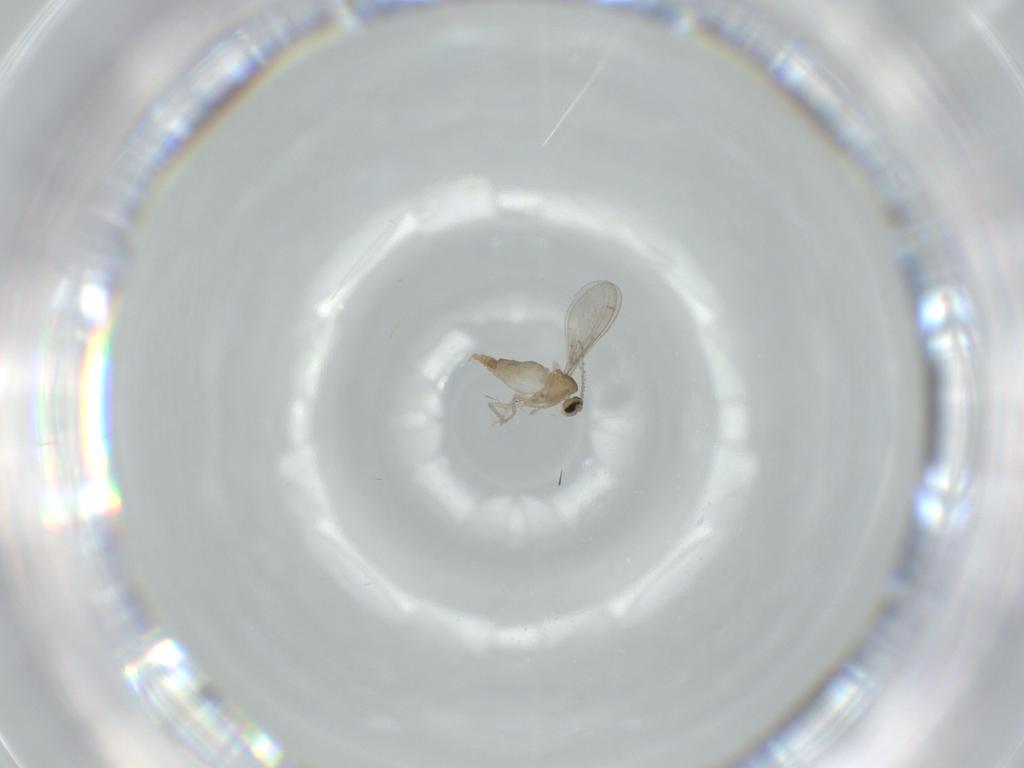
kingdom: Animalia
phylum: Arthropoda
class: Insecta
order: Diptera
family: Cecidomyiidae
